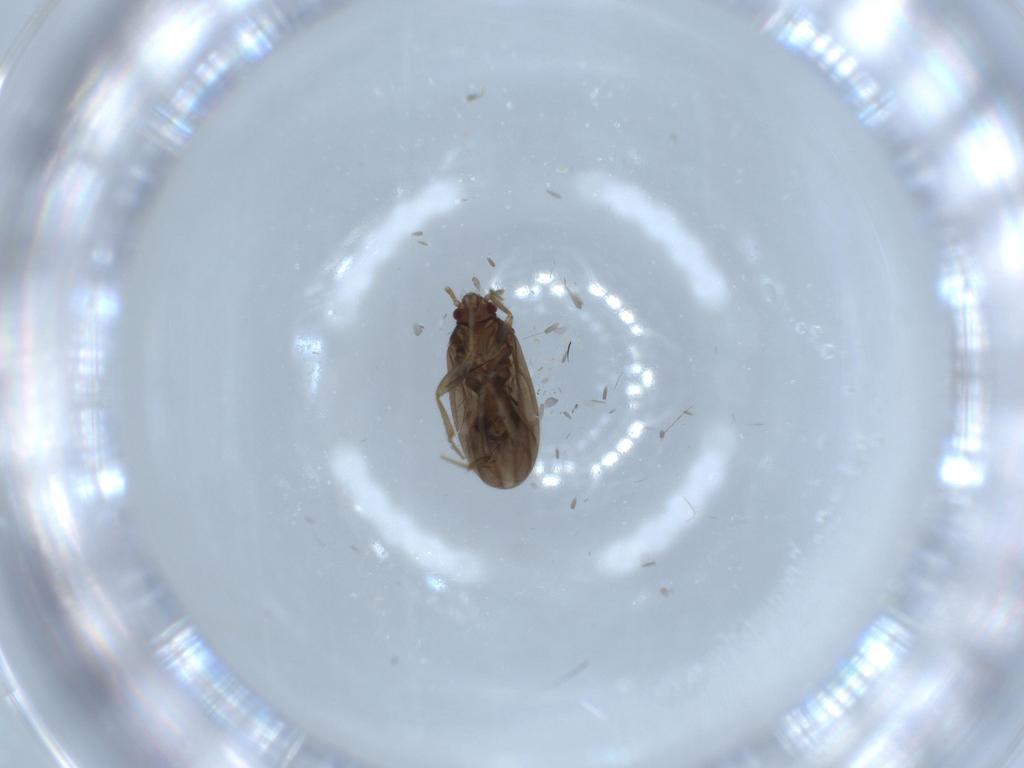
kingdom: Animalia
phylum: Arthropoda
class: Insecta
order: Hemiptera
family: Ceratocombidae
